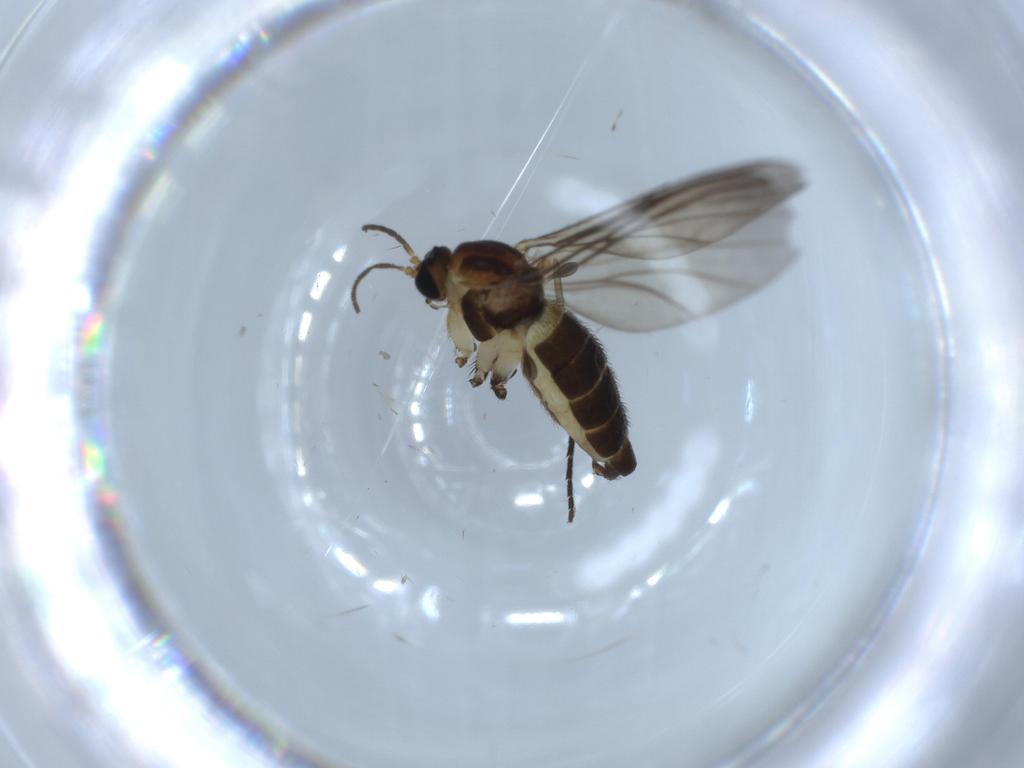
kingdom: Animalia
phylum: Arthropoda
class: Insecta
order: Diptera
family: Sciaridae
